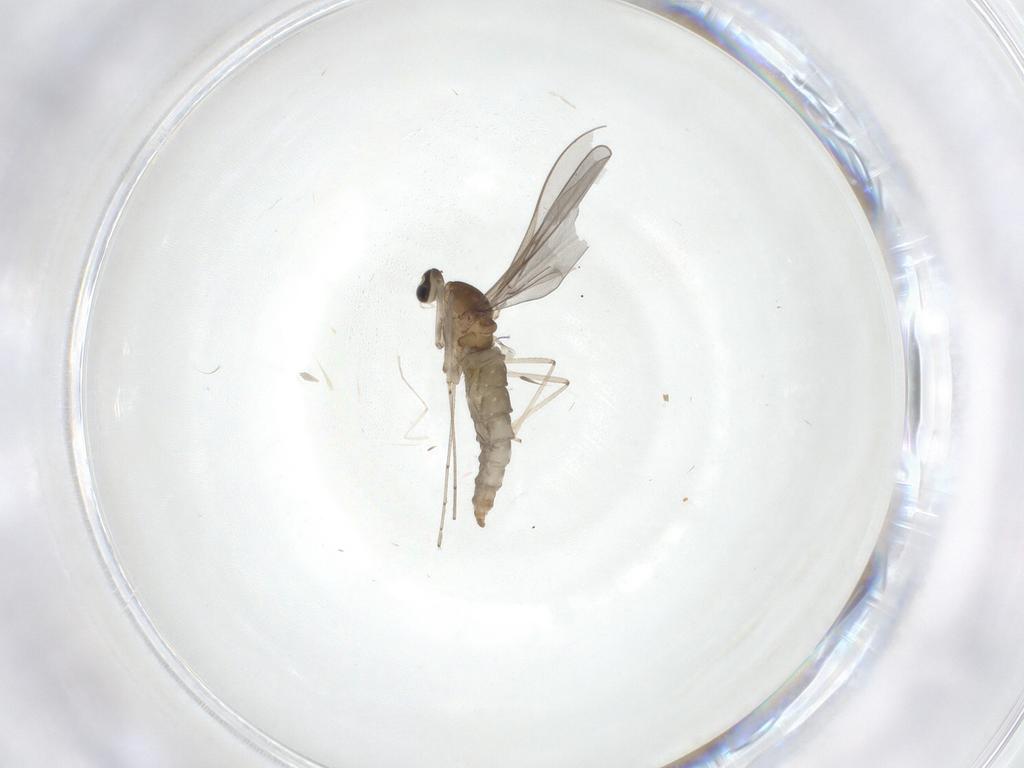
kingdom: Animalia
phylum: Arthropoda
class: Insecta
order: Diptera
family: Cecidomyiidae
